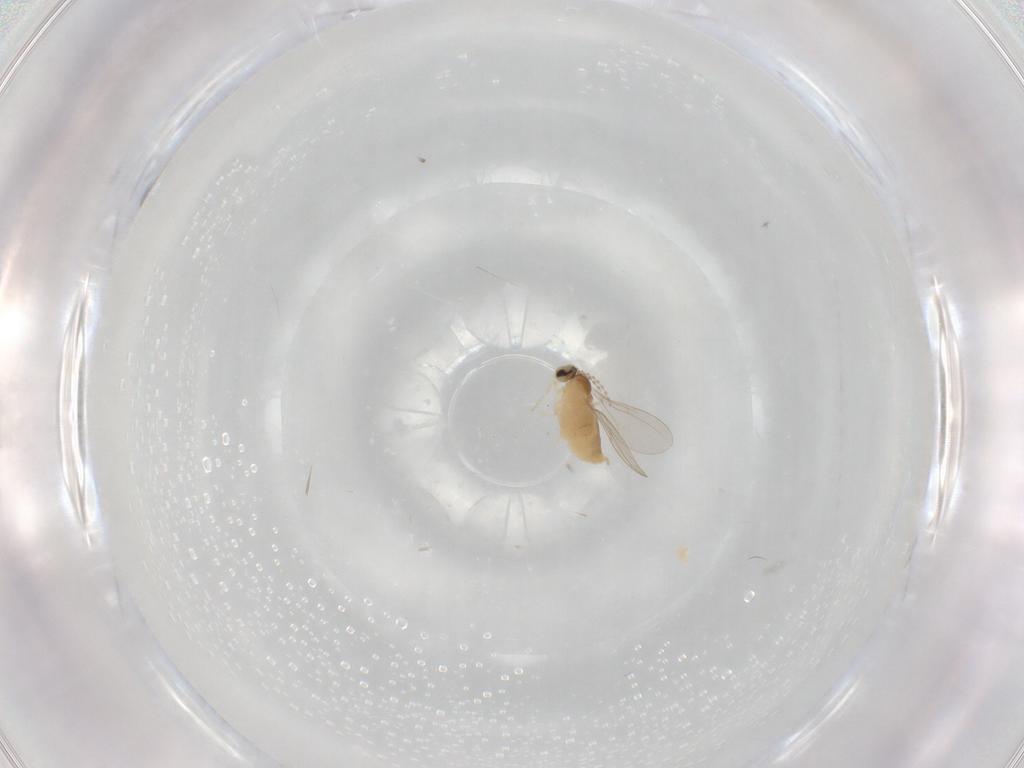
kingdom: Animalia
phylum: Arthropoda
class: Insecta
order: Diptera
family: Cecidomyiidae
